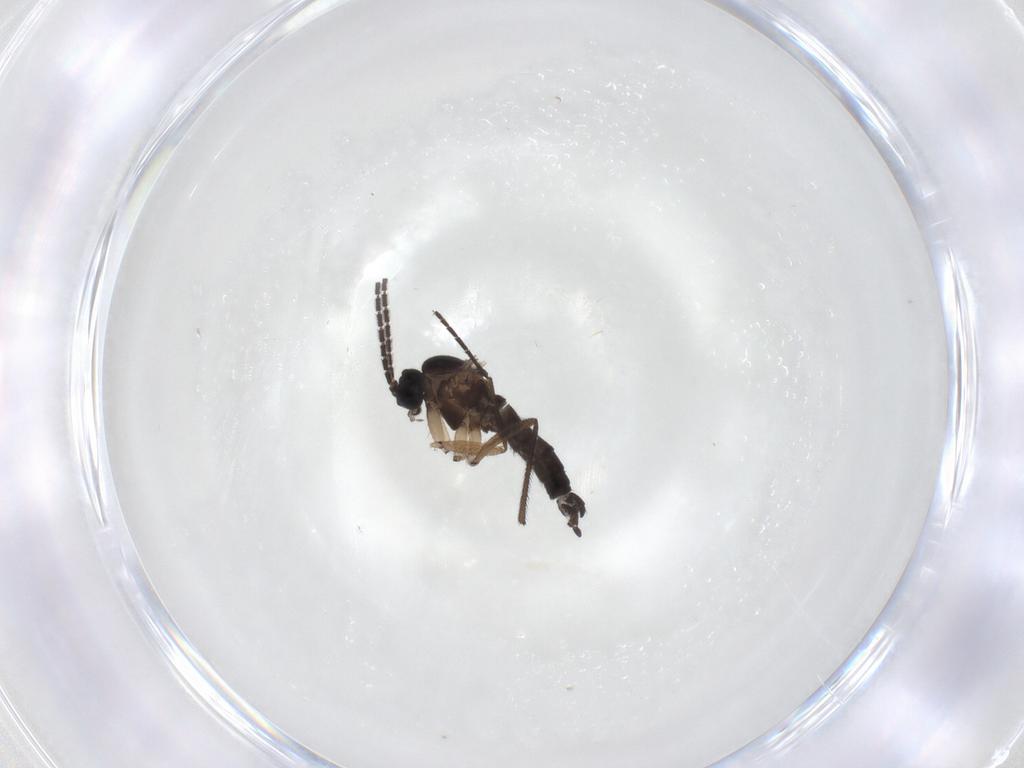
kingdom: Animalia
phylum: Arthropoda
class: Insecta
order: Diptera
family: Sciaridae
